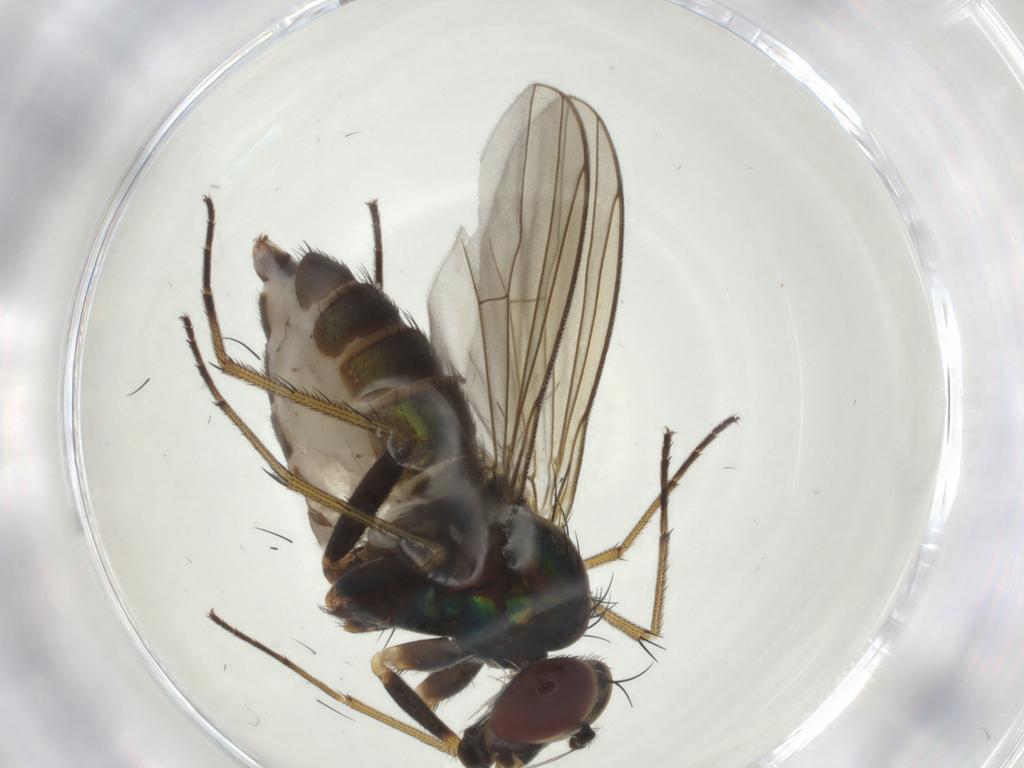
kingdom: Animalia
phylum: Arthropoda
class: Insecta
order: Diptera
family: Dolichopodidae
